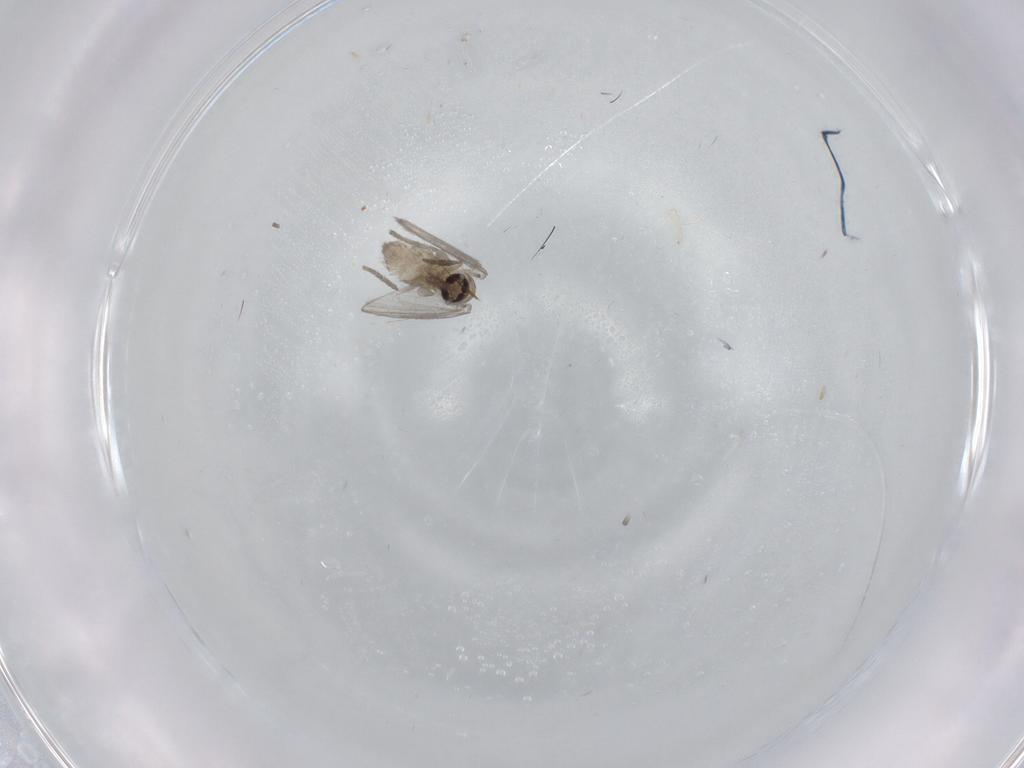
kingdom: Animalia
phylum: Arthropoda
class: Insecta
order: Diptera
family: Psychodidae
